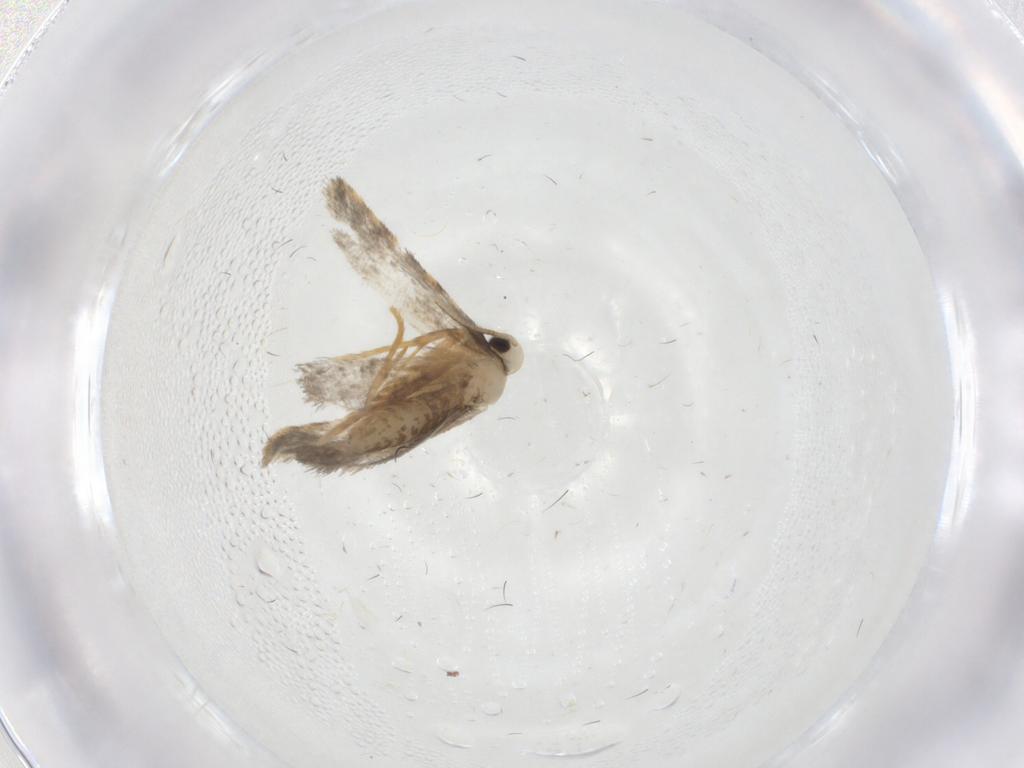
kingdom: Animalia
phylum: Arthropoda
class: Insecta
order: Lepidoptera
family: Psychidae
